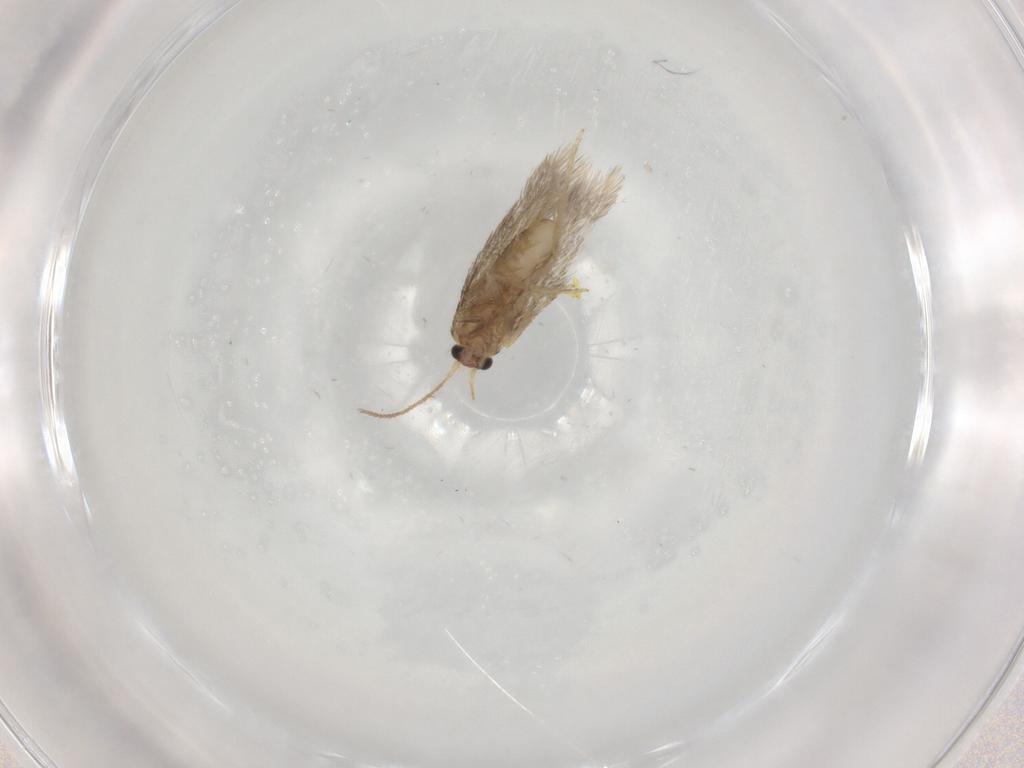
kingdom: Animalia
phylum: Arthropoda
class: Insecta
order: Lepidoptera
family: Nepticulidae
